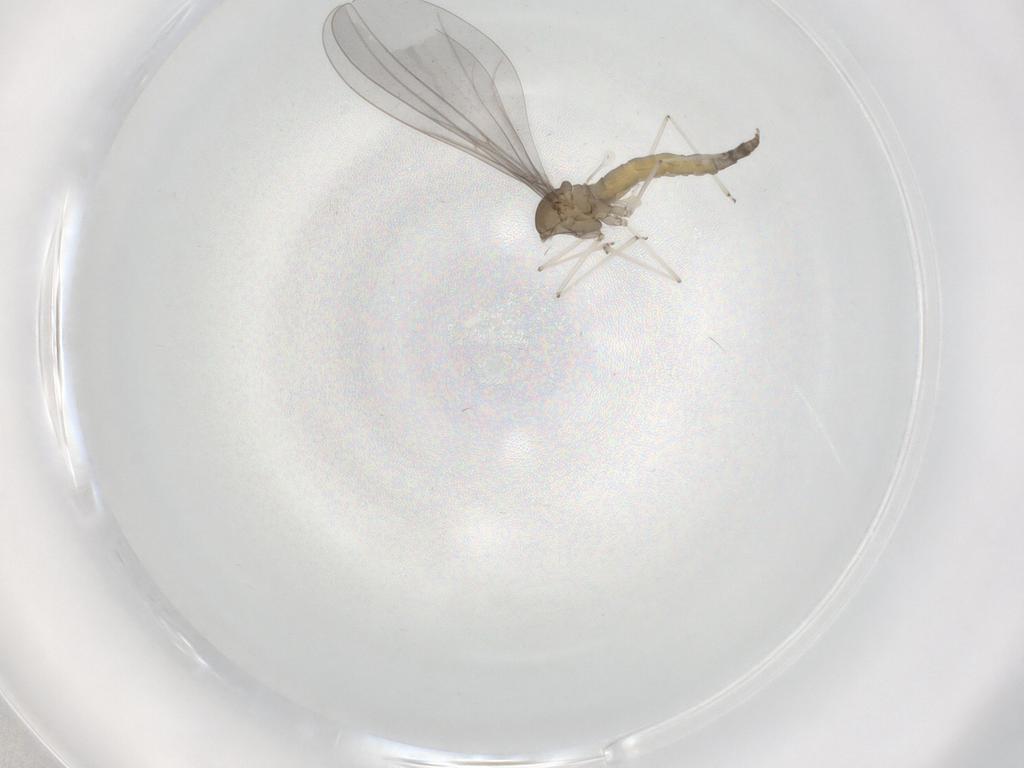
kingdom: Animalia
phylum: Arthropoda
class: Insecta
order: Diptera
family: Cecidomyiidae
